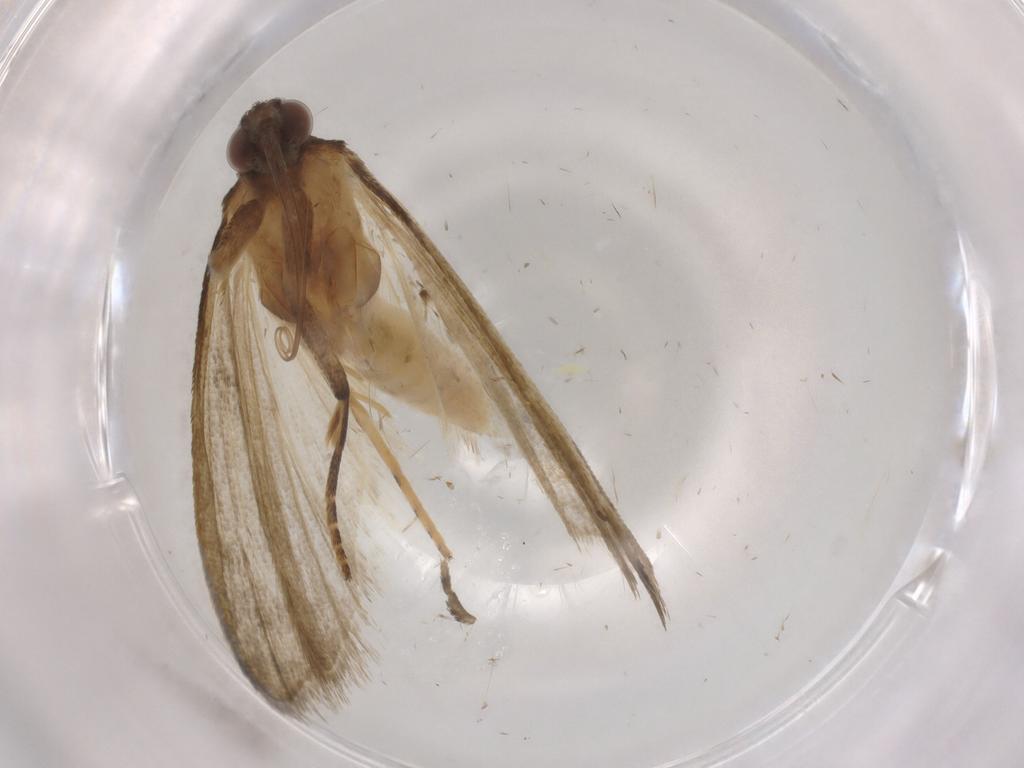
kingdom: Animalia
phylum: Arthropoda
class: Insecta
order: Lepidoptera
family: Noctuidae
